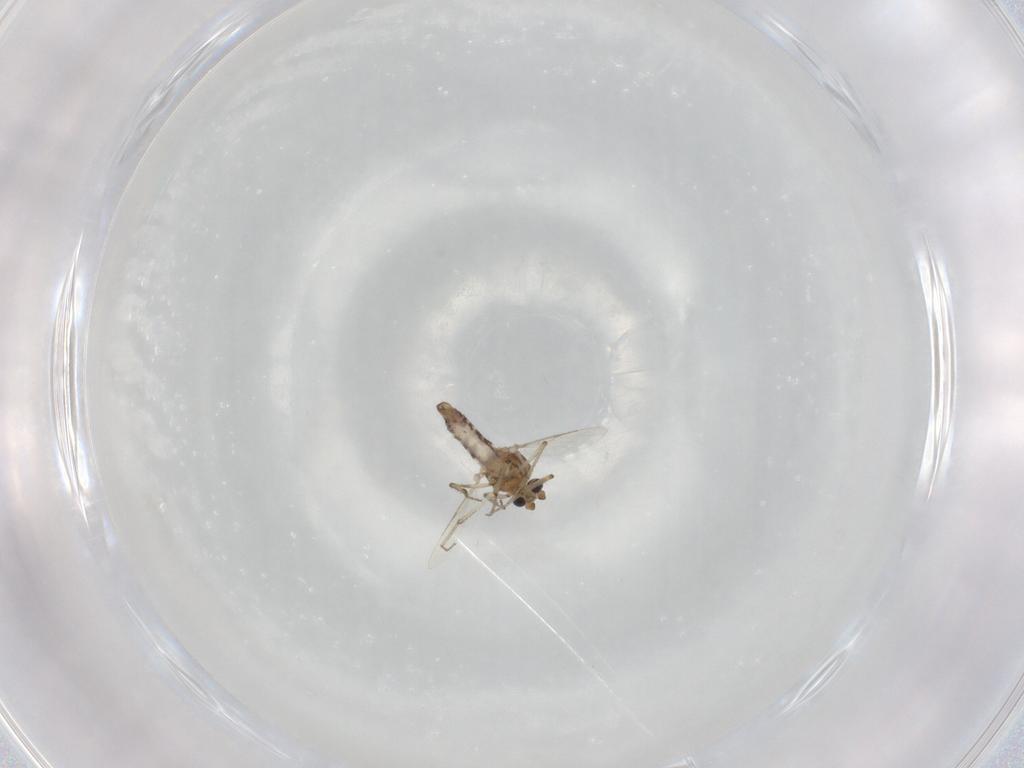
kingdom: Animalia
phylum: Arthropoda
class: Insecta
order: Diptera
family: Ceratopogonidae
